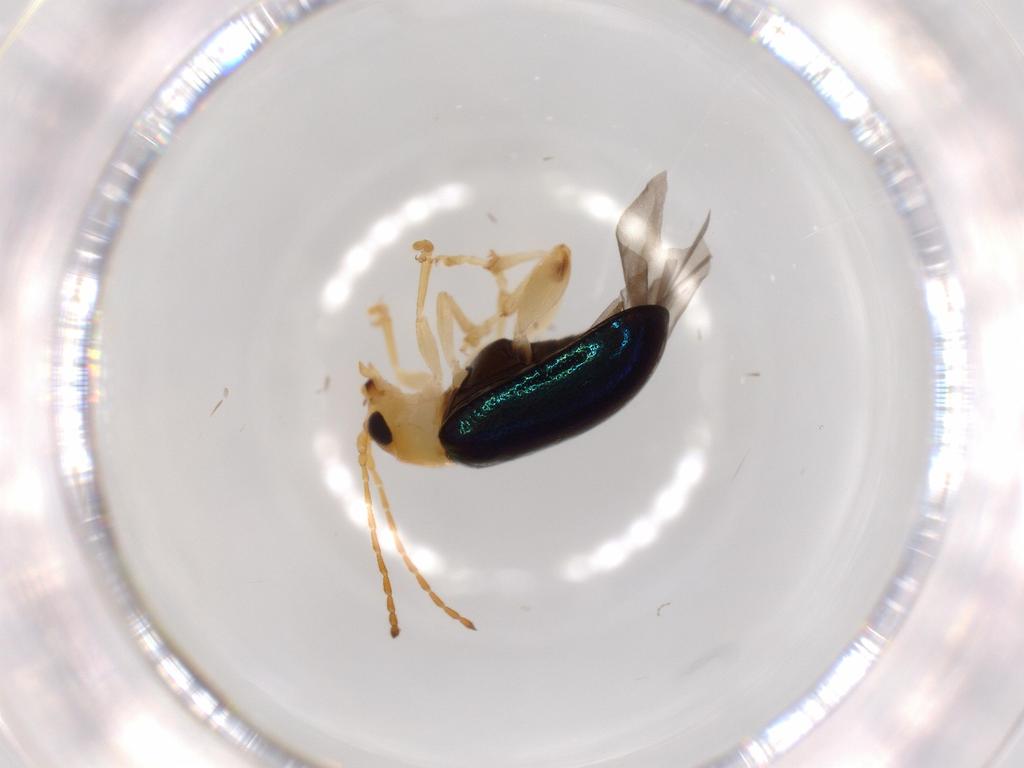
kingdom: Animalia
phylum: Arthropoda
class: Insecta
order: Coleoptera
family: Chrysomelidae
